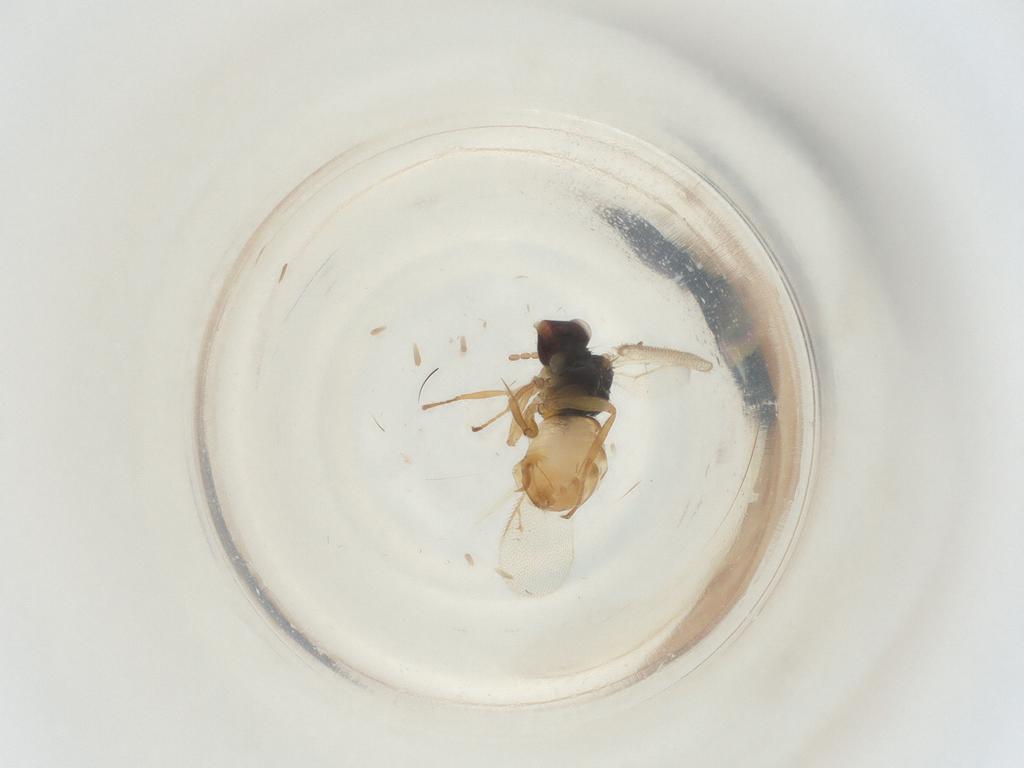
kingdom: Animalia
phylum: Arthropoda
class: Insecta
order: Hymenoptera
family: Eulophidae
